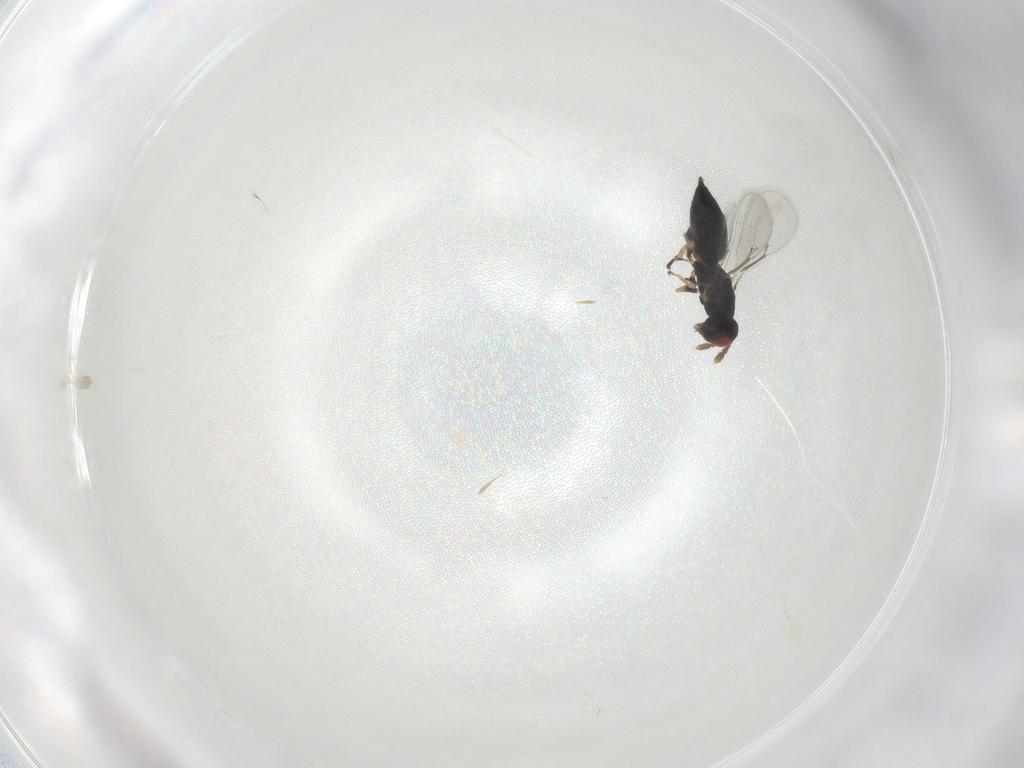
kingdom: Animalia
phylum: Arthropoda
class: Insecta
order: Hymenoptera
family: Eulophidae
